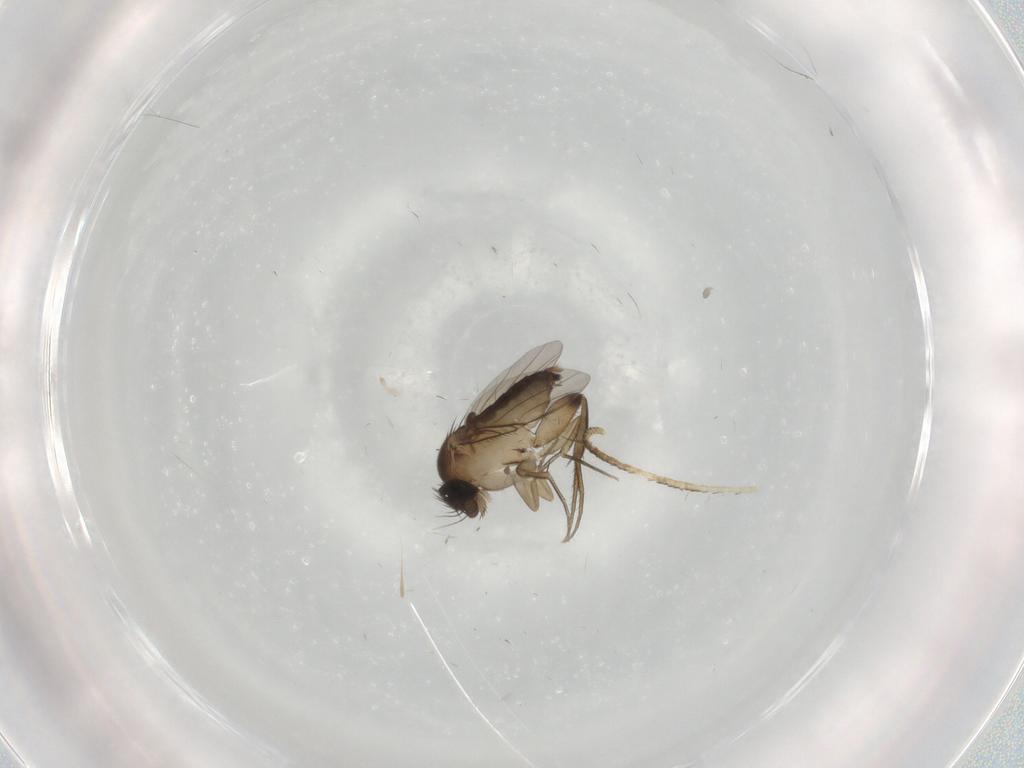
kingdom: Animalia
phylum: Arthropoda
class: Insecta
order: Diptera
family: Phoridae
